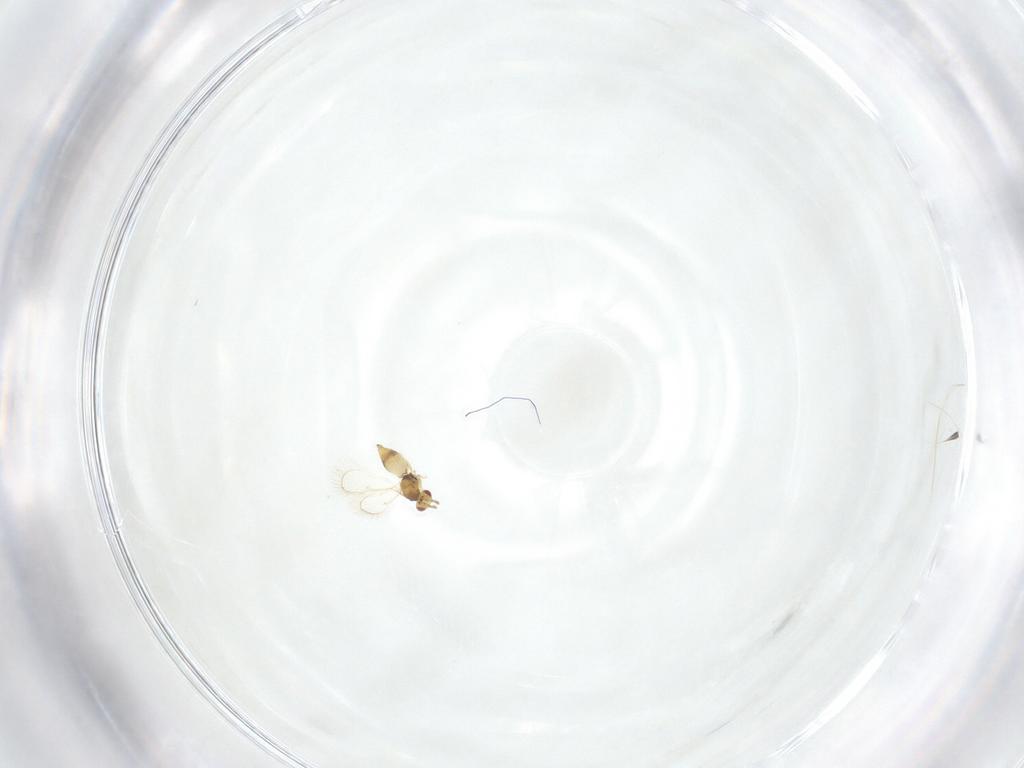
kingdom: Animalia
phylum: Arthropoda
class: Insecta
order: Hymenoptera
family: Eulophidae
